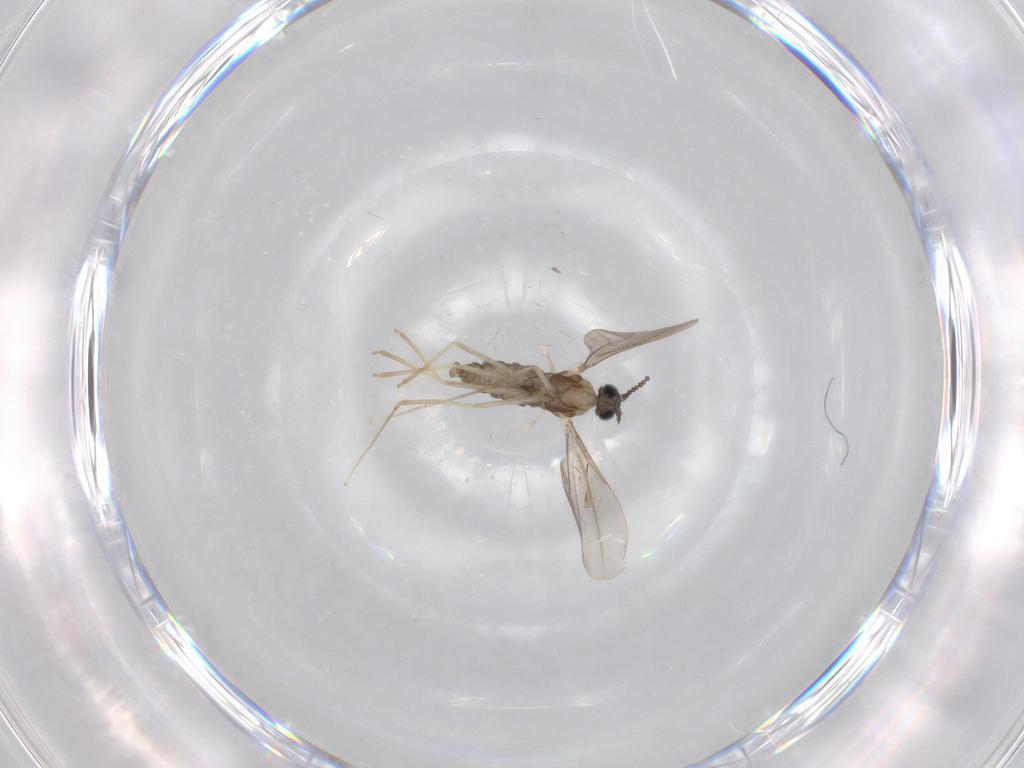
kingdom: Animalia
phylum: Arthropoda
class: Insecta
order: Diptera
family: Cecidomyiidae
